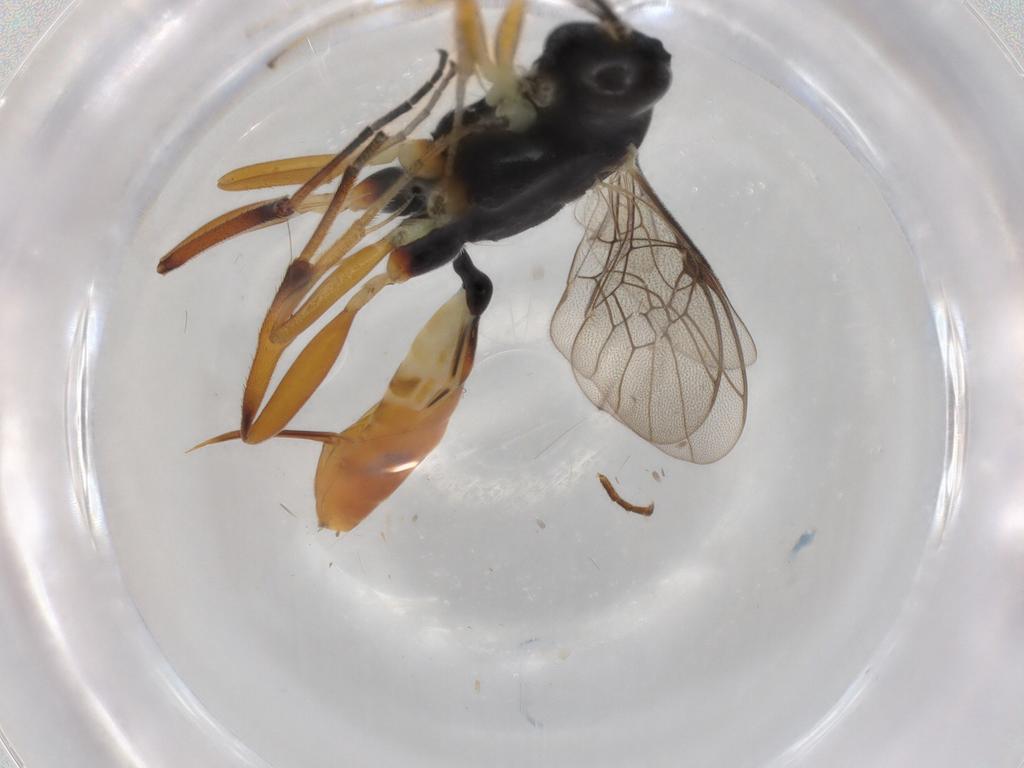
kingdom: Animalia
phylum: Arthropoda
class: Insecta
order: Hymenoptera
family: Ichneumonidae
